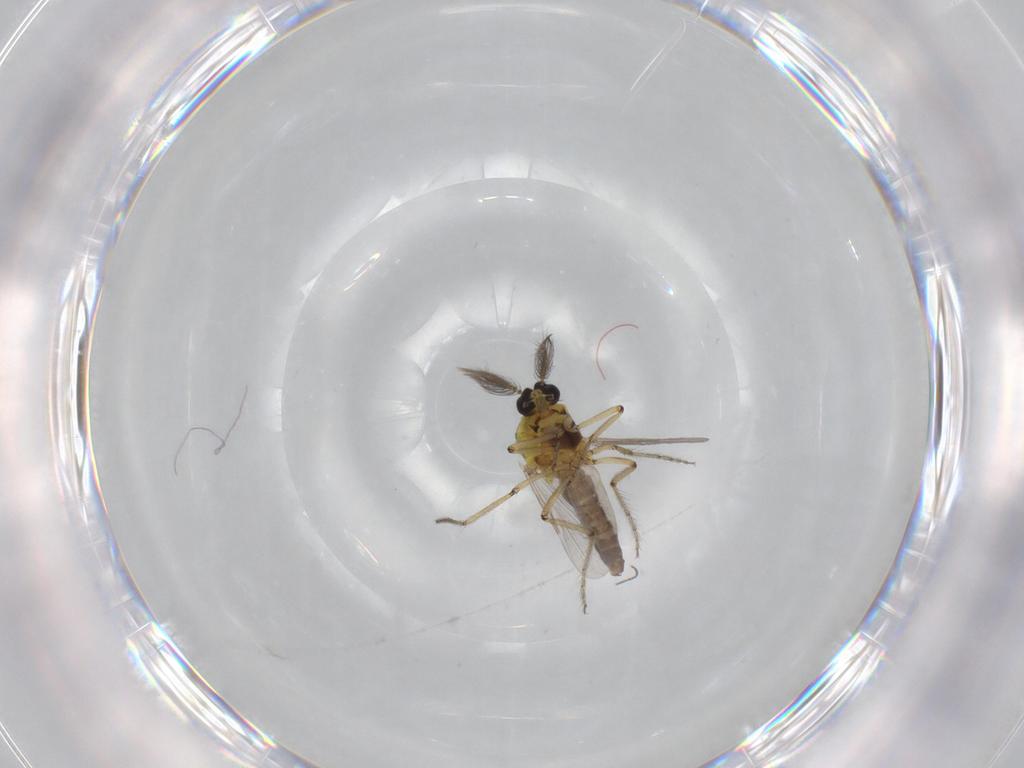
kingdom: Animalia
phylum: Arthropoda
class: Insecta
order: Diptera
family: Ceratopogonidae
